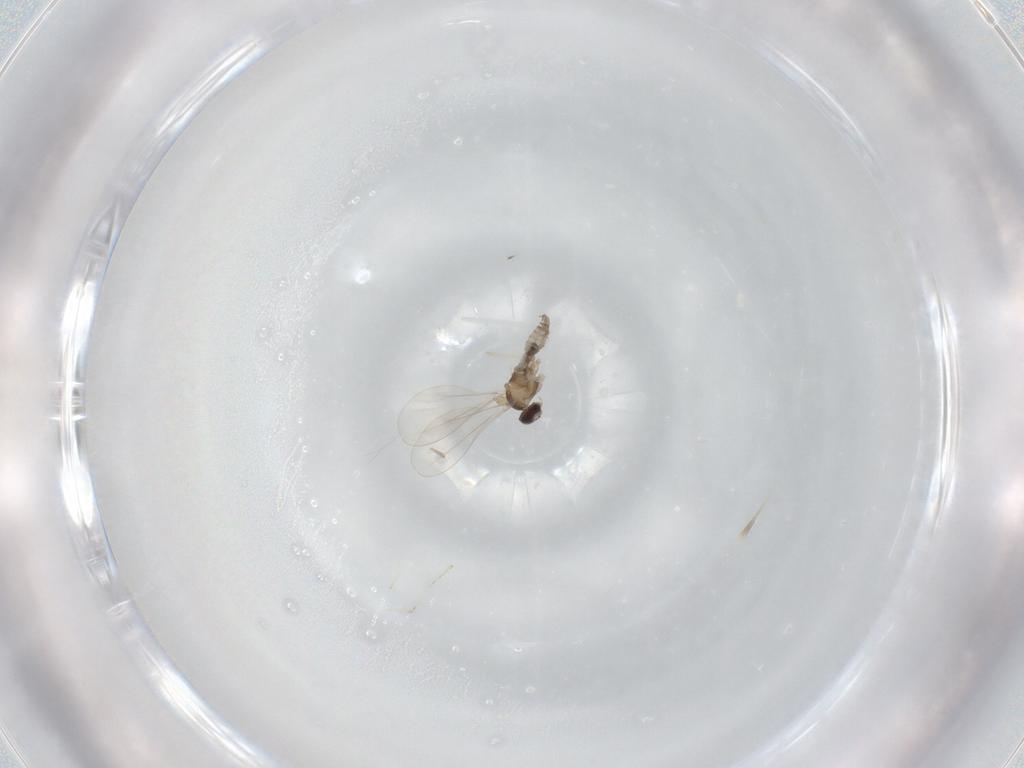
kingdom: Animalia
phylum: Arthropoda
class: Insecta
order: Diptera
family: Cecidomyiidae
